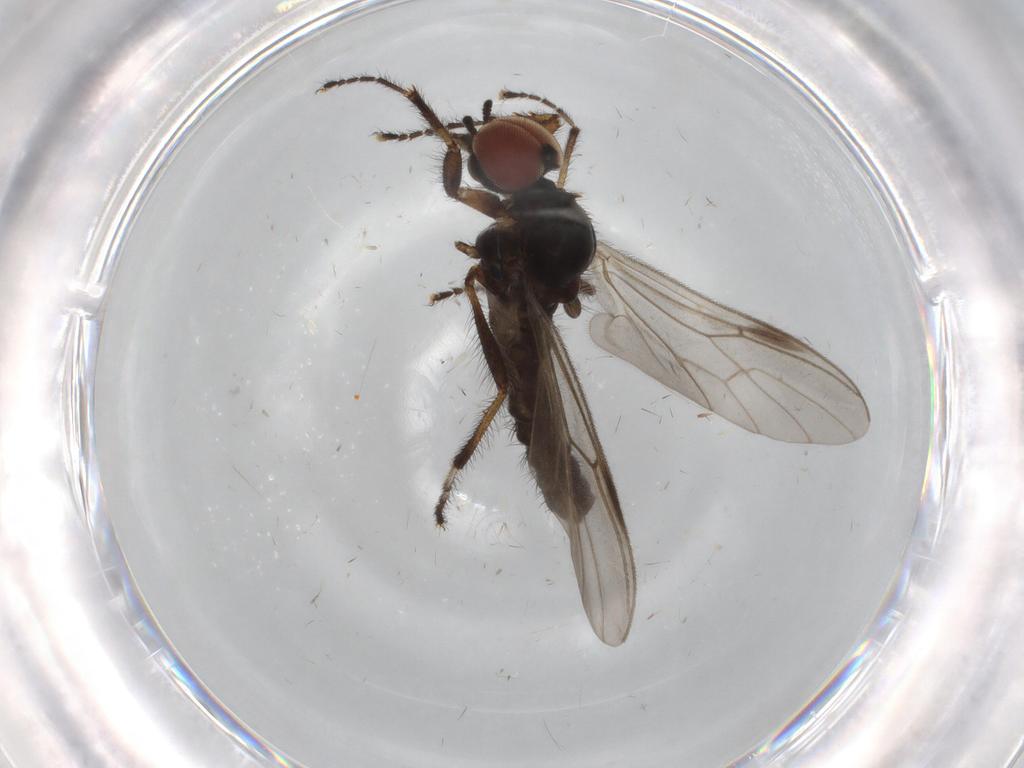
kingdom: Animalia
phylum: Arthropoda
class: Insecta
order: Diptera
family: Bibionidae
